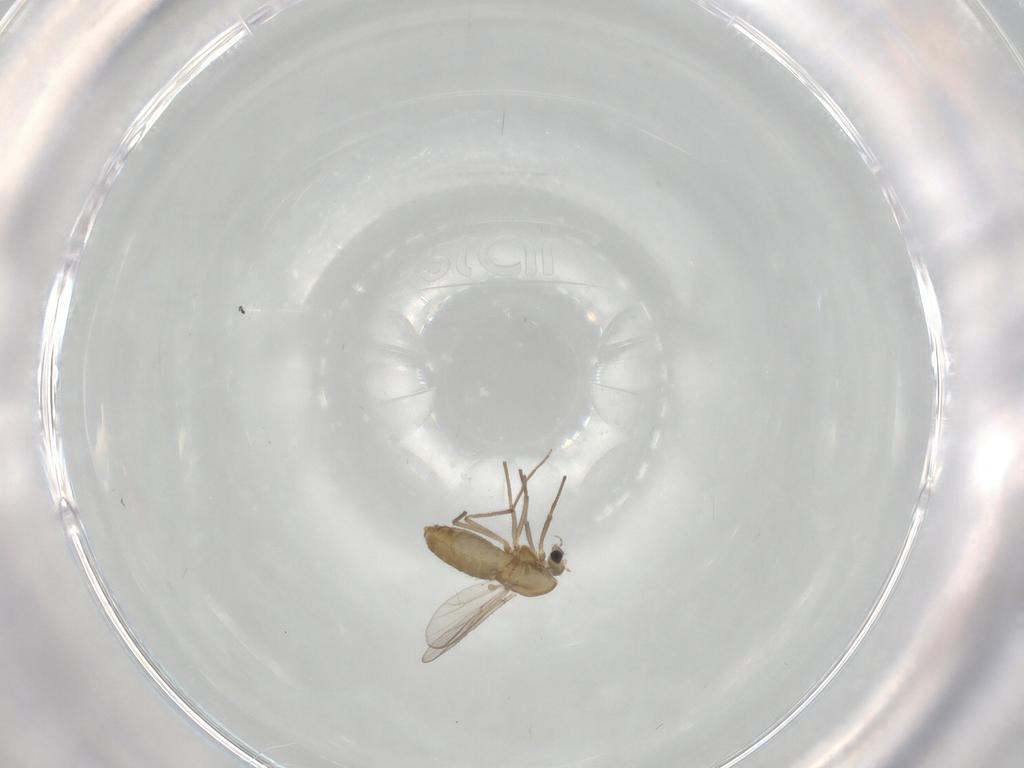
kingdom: Animalia
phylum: Arthropoda
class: Insecta
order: Diptera
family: Chironomidae
